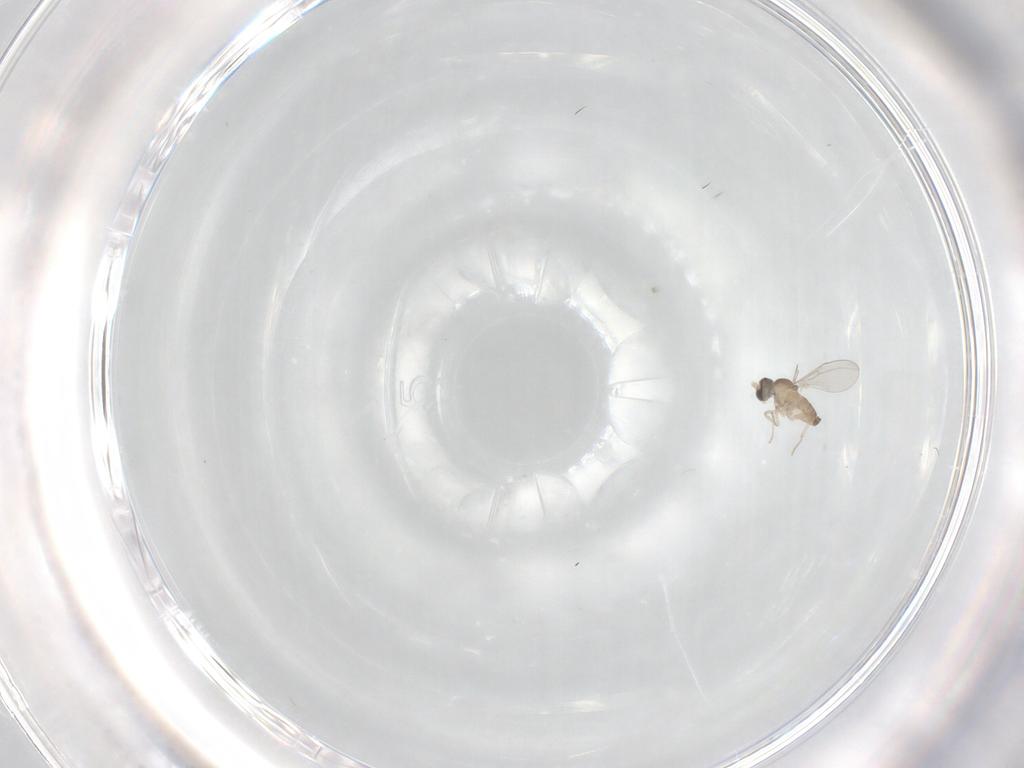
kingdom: Animalia
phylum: Arthropoda
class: Insecta
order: Diptera
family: Cecidomyiidae
